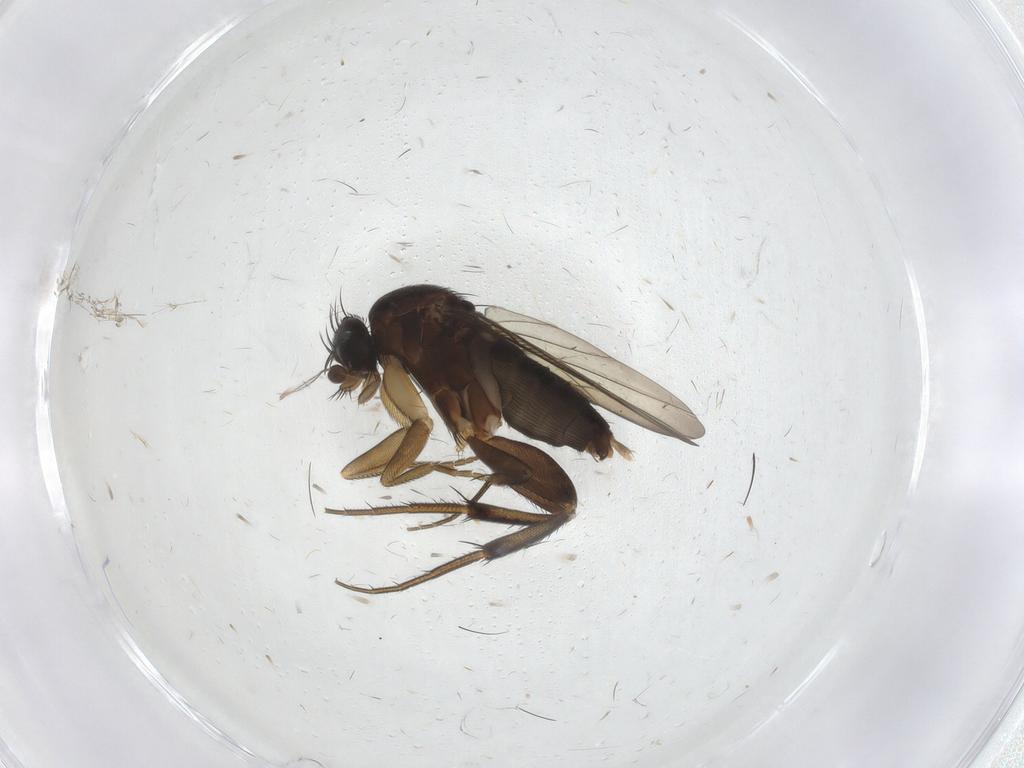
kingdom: Animalia
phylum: Arthropoda
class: Insecta
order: Diptera
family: Phoridae
